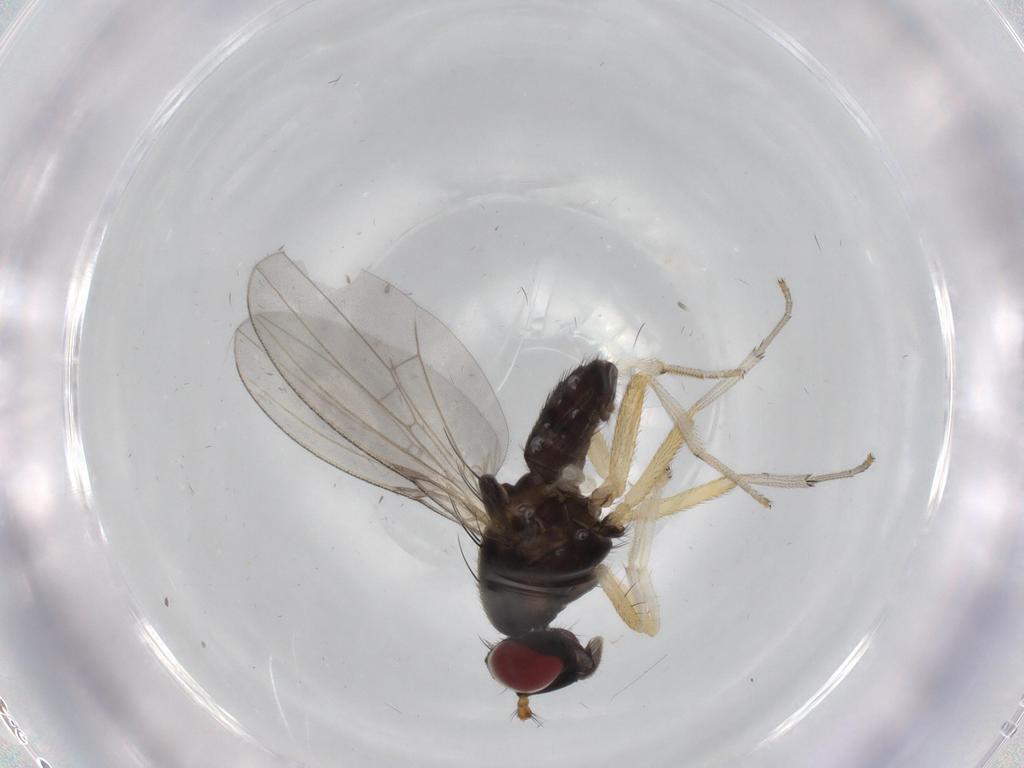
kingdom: Animalia
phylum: Arthropoda
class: Insecta
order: Diptera
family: Lauxaniidae
